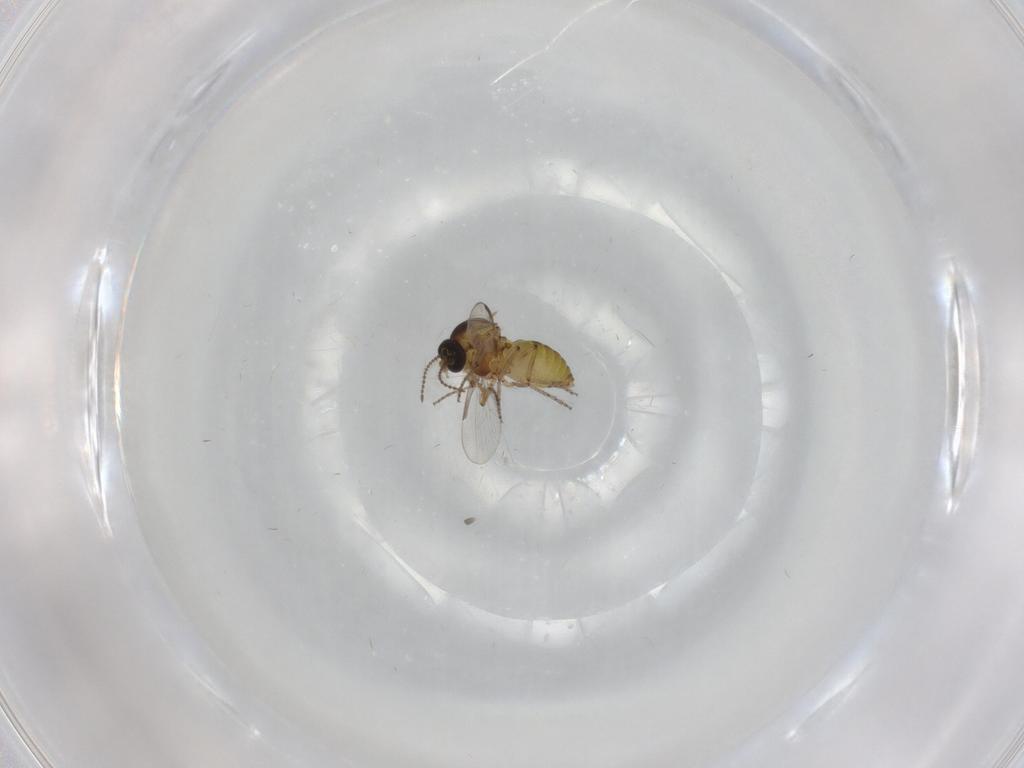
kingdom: Animalia
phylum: Arthropoda
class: Insecta
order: Diptera
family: Ceratopogonidae
